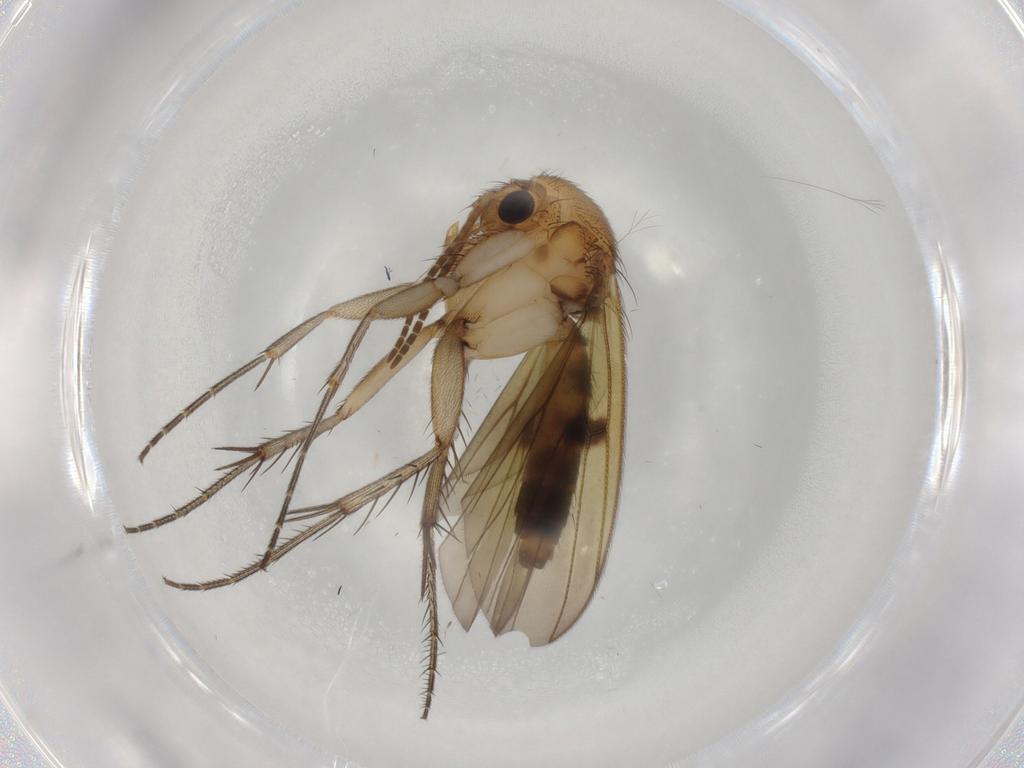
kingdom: Animalia
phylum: Arthropoda
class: Insecta
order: Diptera
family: Mycetophilidae
